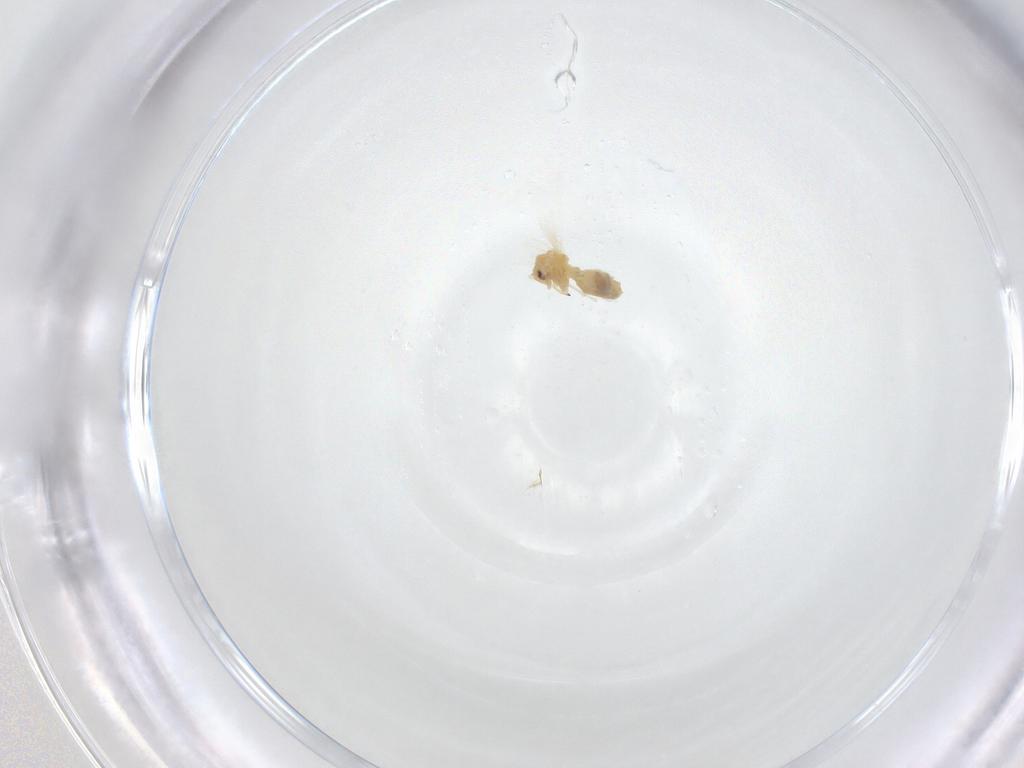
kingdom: Animalia
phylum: Arthropoda
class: Insecta
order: Hemiptera
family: Aleyrodidae
